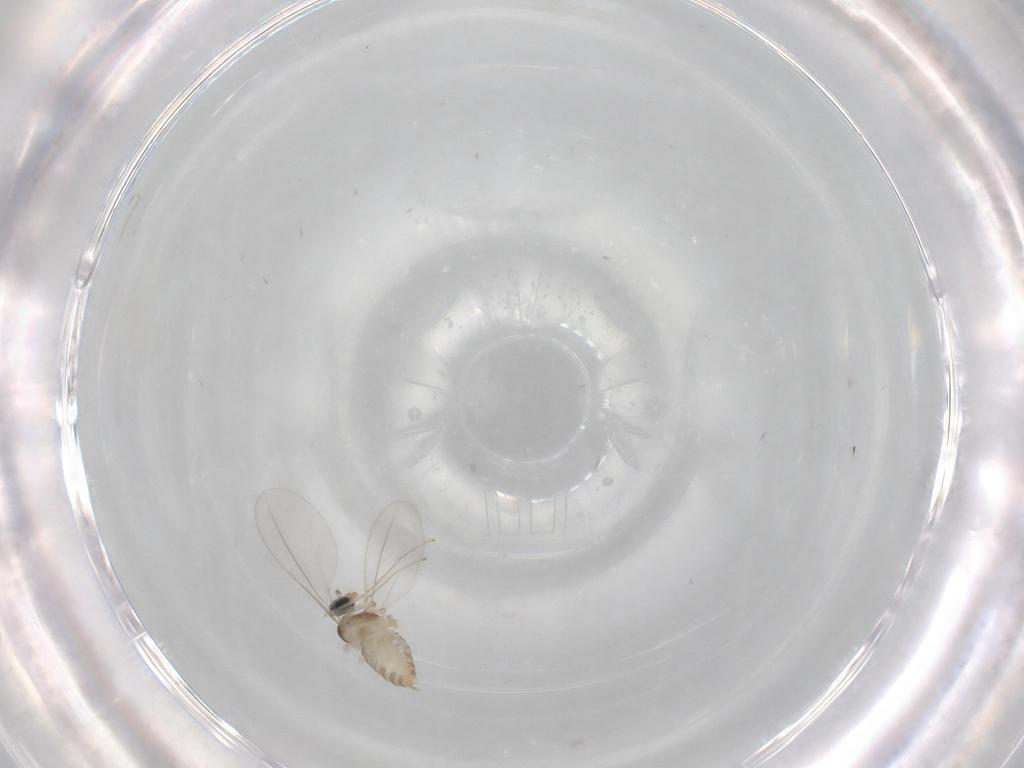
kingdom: Animalia
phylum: Arthropoda
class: Insecta
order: Diptera
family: Cecidomyiidae
